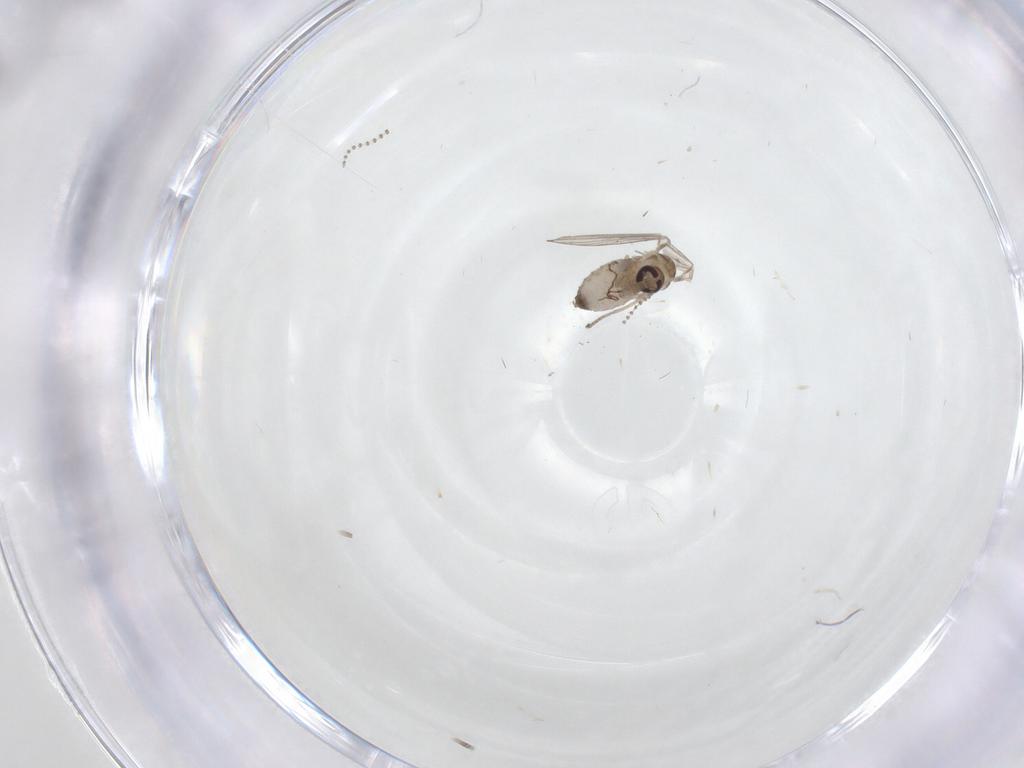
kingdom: Animalia
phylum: Arthropoda
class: Insecta
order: Diptera
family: Psychodidae
